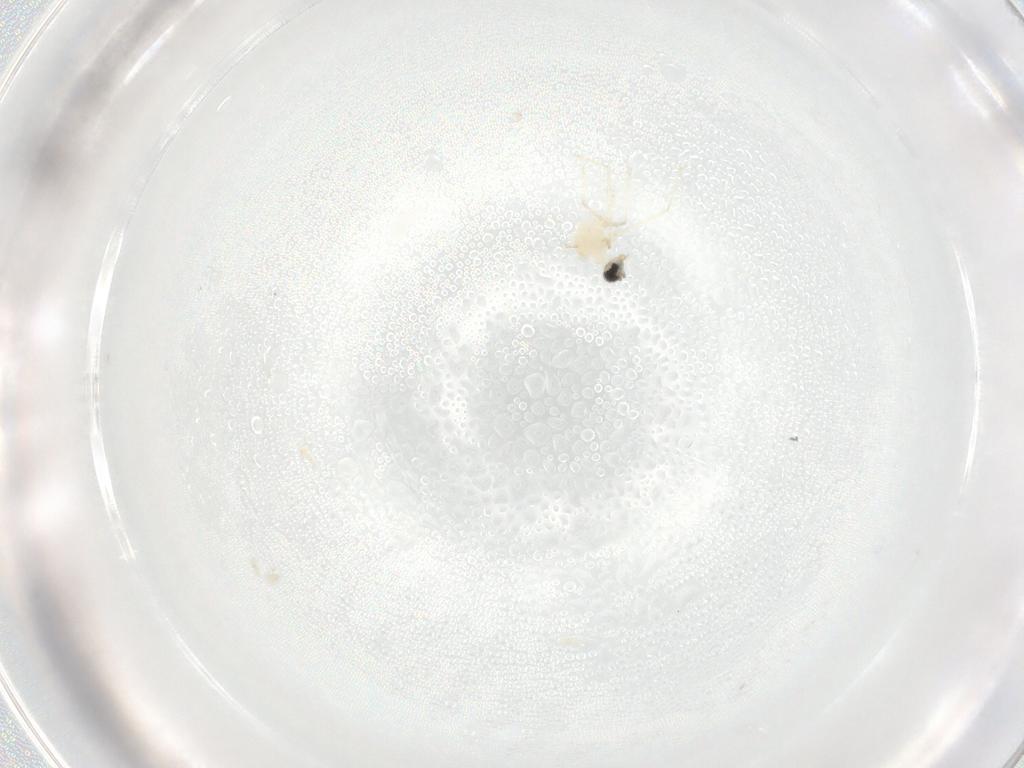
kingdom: Animalia
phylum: Arthropoda
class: Insecta
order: Diptera
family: Cecidomyiidae
